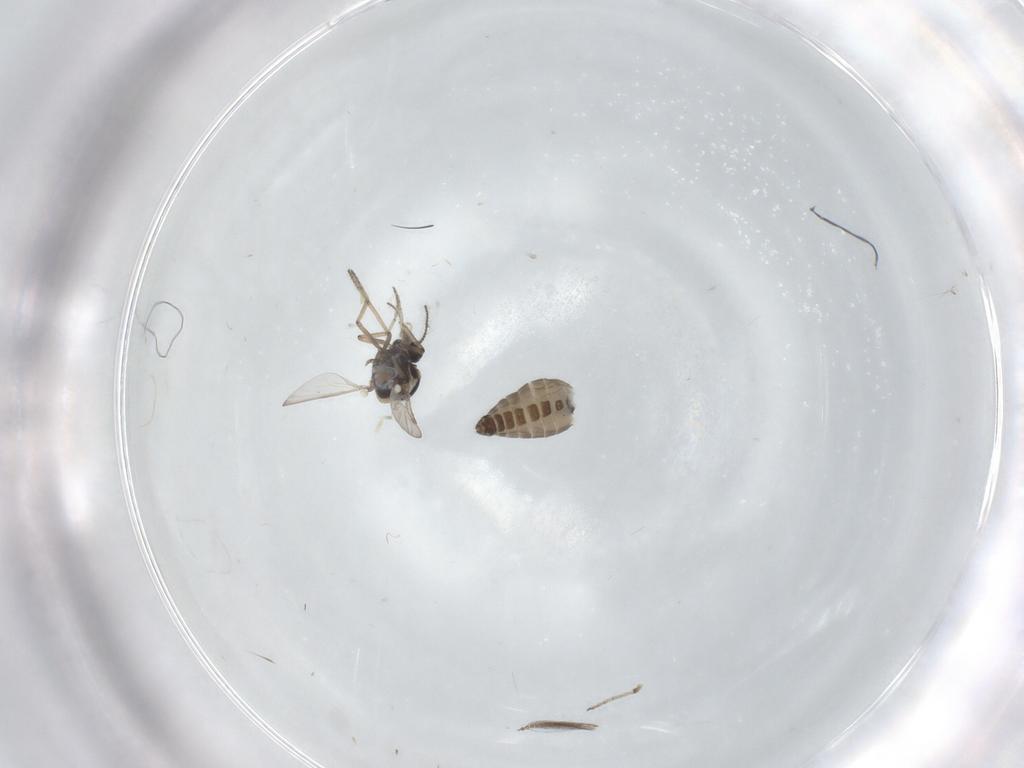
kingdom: Animalia
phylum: Arthropoda
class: Insecta
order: Diptera
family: Ceratopogonidae
